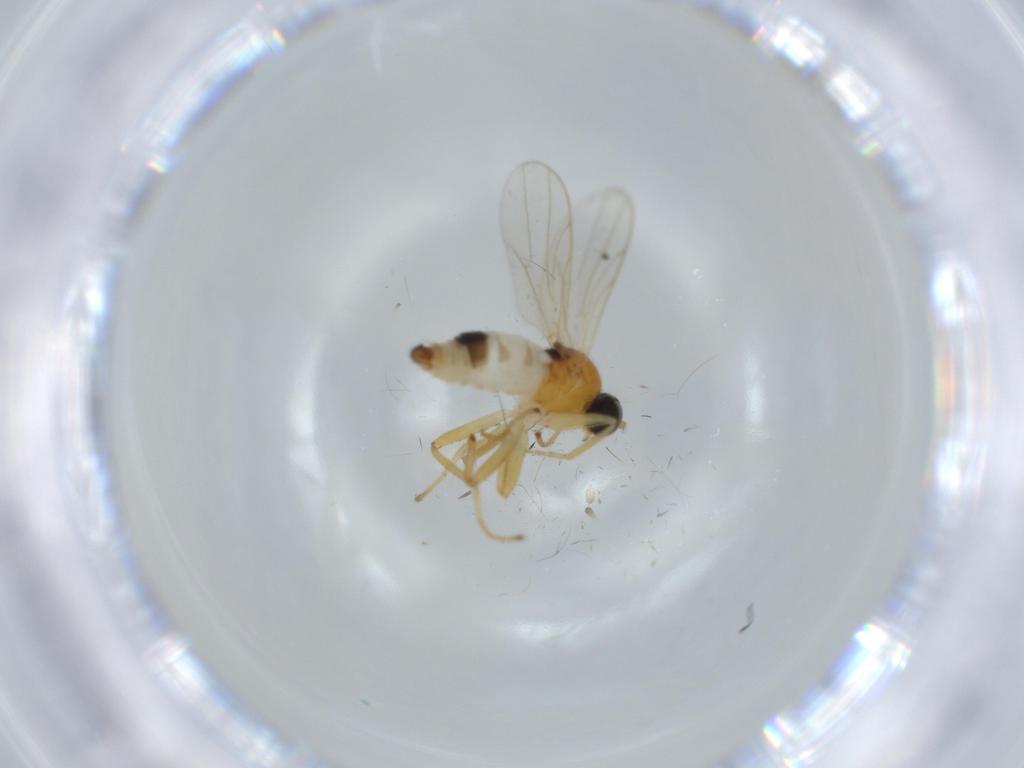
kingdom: Animalia
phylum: Arthropoda
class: Insecta
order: Diptera
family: Hybotidae
